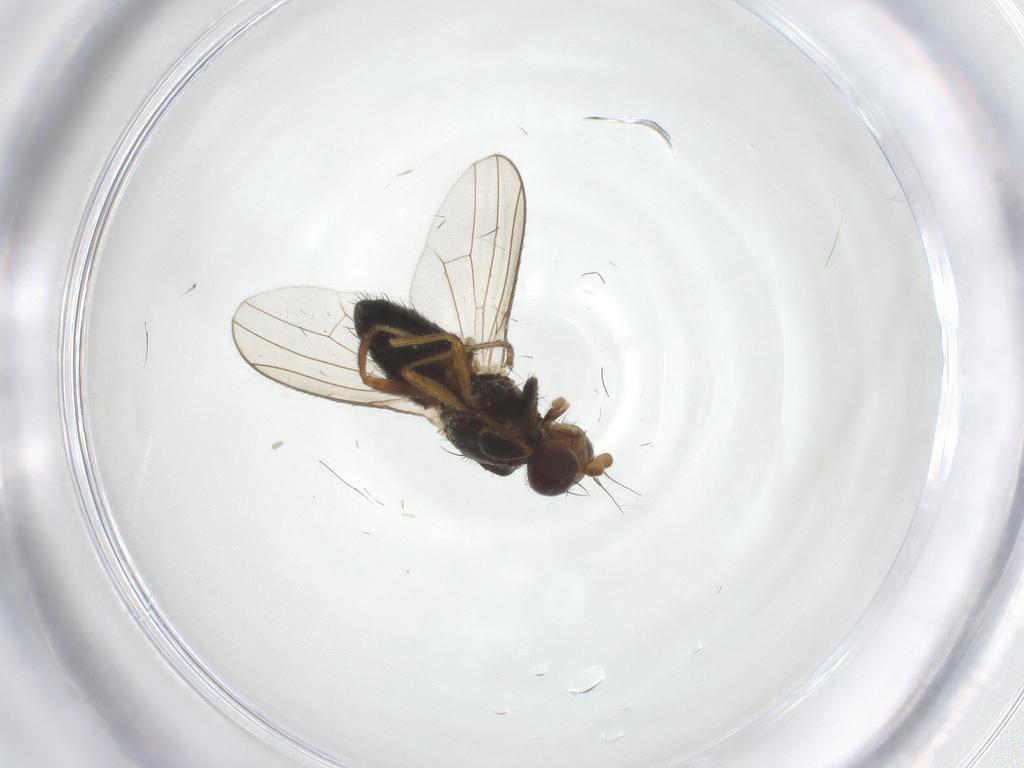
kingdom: Animalia
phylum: Arthropoda
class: Insecta
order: Diptera
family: Heleomyzidae
